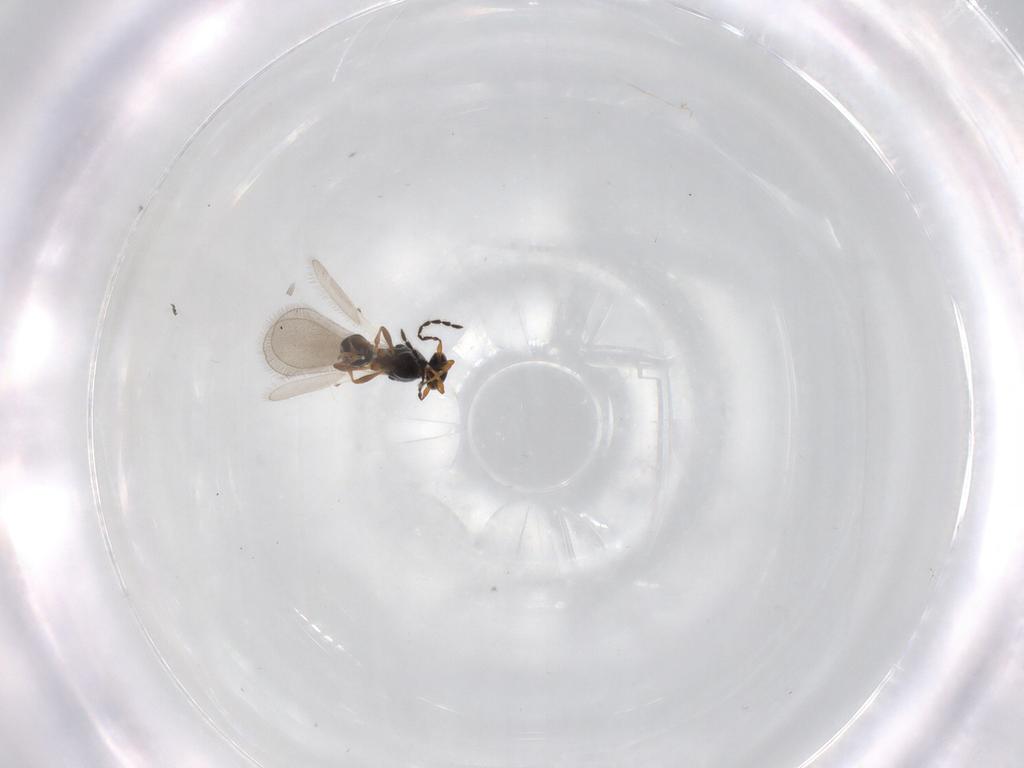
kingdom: Animalia
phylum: Arthropoda
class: Insecta
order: Hymenoptera
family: Platygastridae
